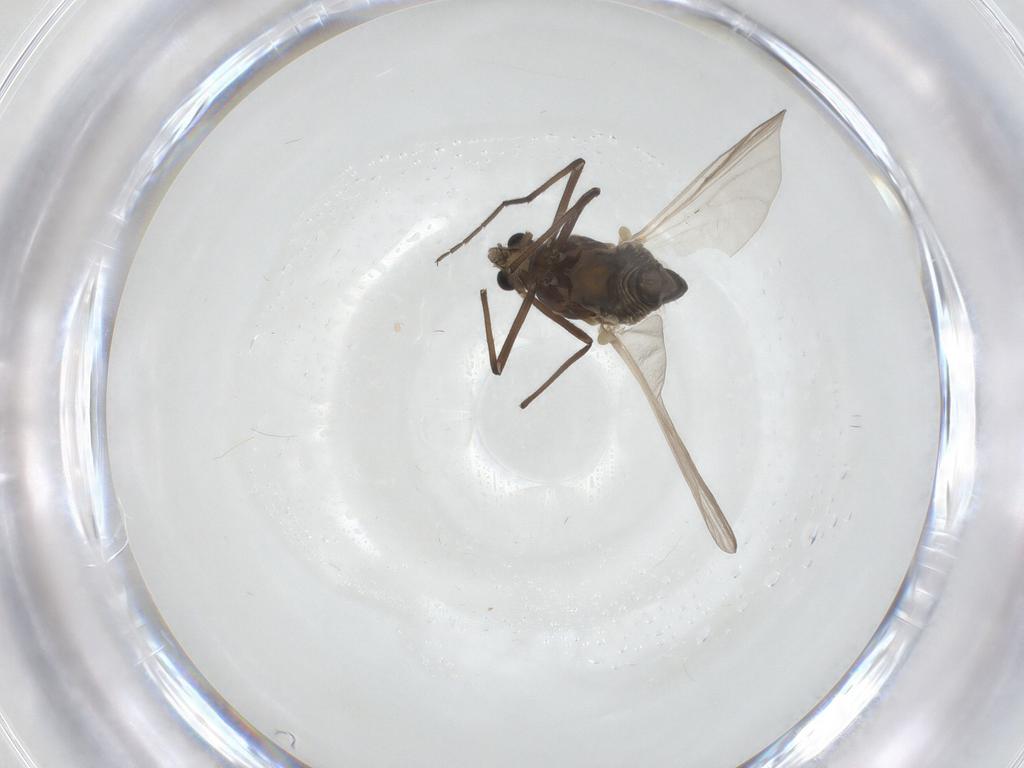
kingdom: Animalia
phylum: Arthropoda
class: Insecta
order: Diptera
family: Chironomidae
